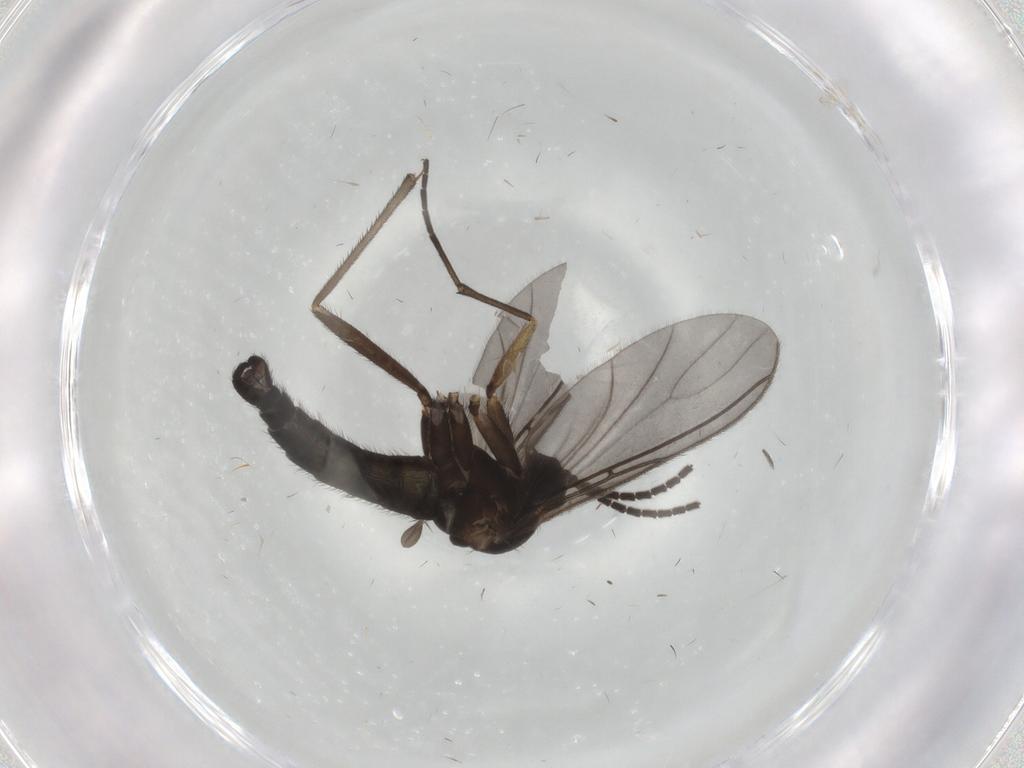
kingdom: Animalia
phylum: Arthropoda
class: Insecta
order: Diptera
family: Sciaridae
